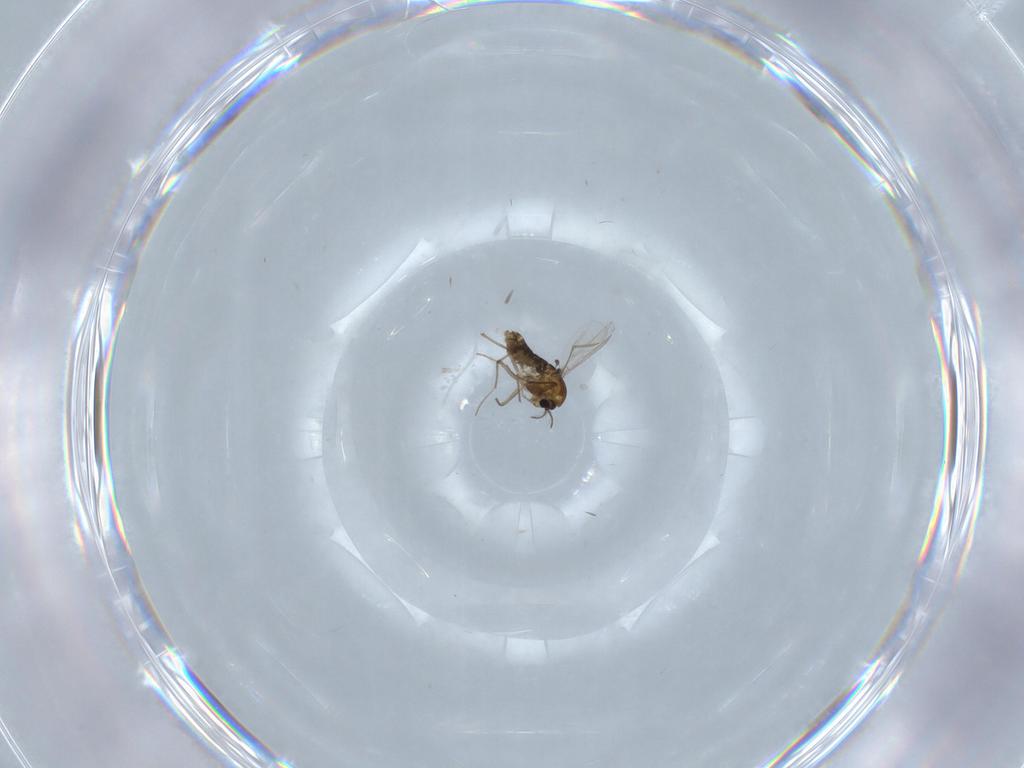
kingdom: Animalia
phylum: Arthropoda
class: Insecta
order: Diptera
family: Chironomidae
